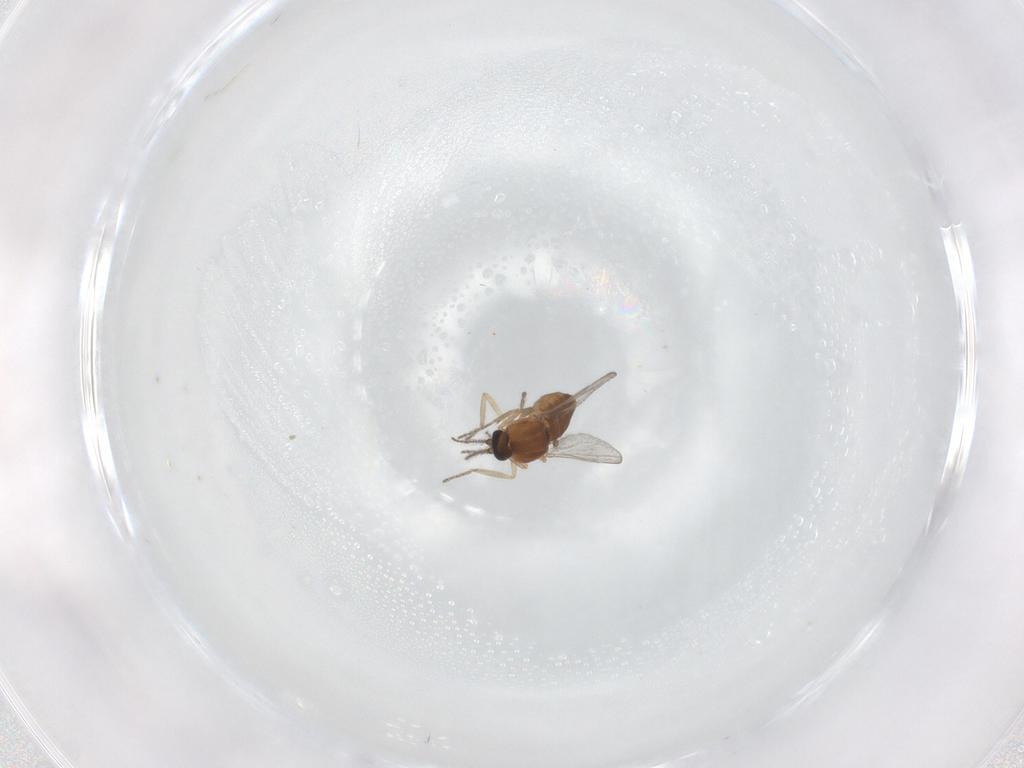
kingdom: Animalia
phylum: Arthropoda
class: Insecta
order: Diptera
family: Ceratopogonidae
